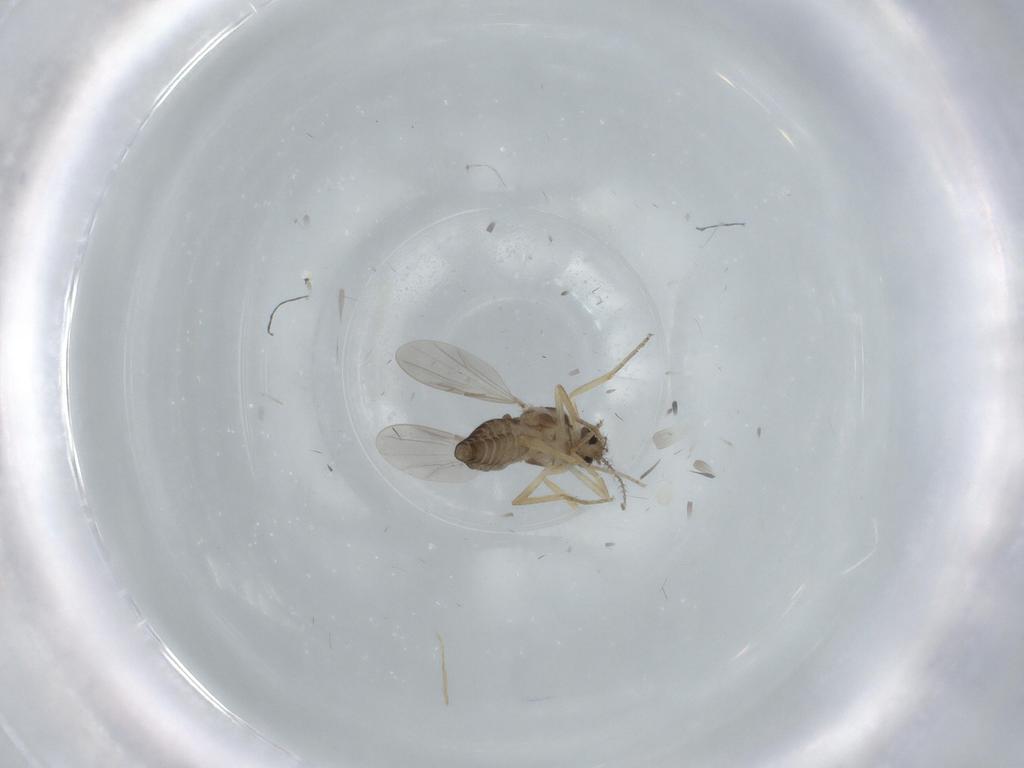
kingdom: Animalia
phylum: Arthropoda
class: Insecta
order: Diptera
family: Ceratopogonidae
